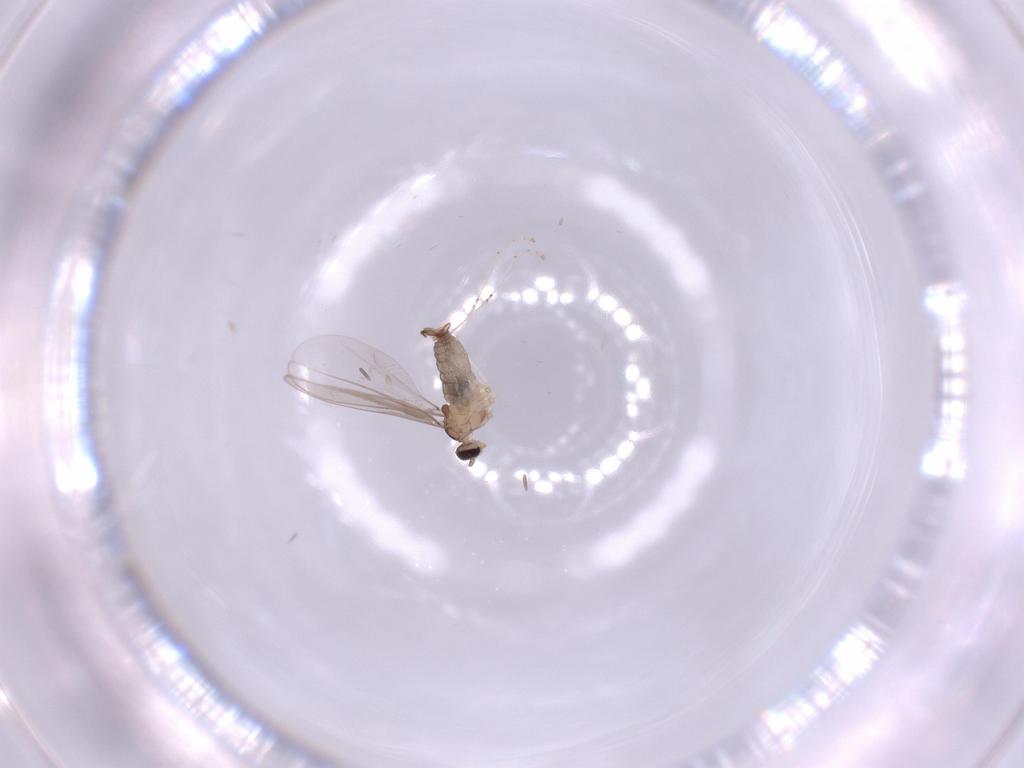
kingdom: Animalia
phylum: Arthropoda
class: Insecta
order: Diptera
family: Cecidomyiidae
